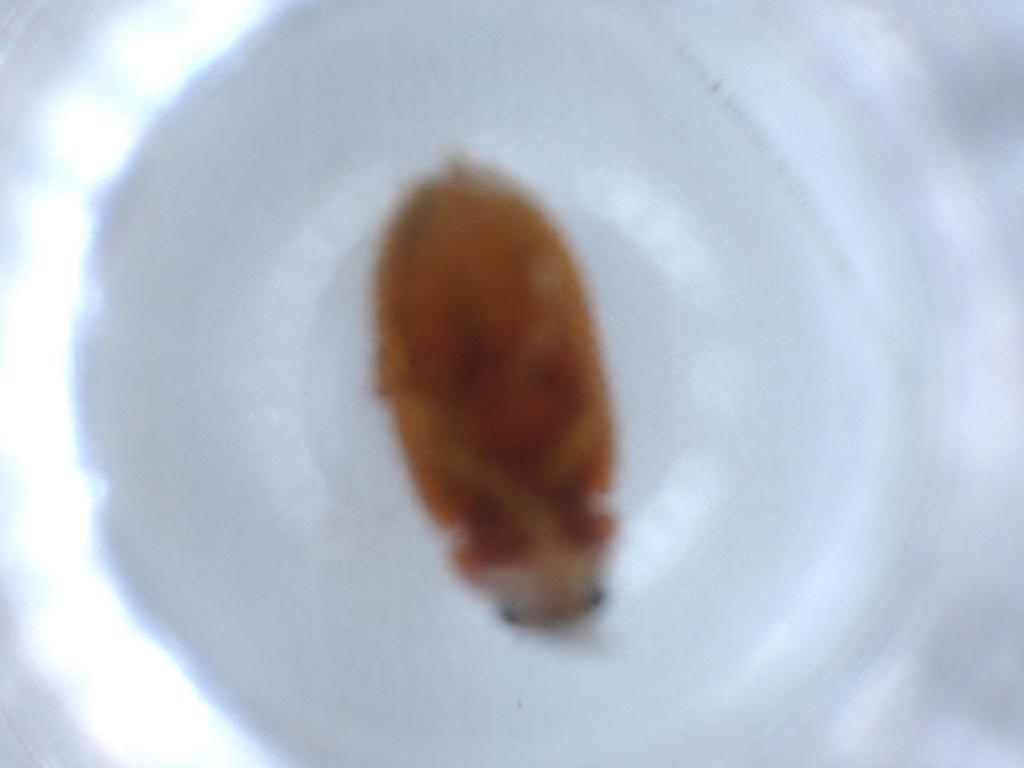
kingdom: Animalia
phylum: Arthropoda
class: Insecta
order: Coleoptera
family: Ptilodactylidae
